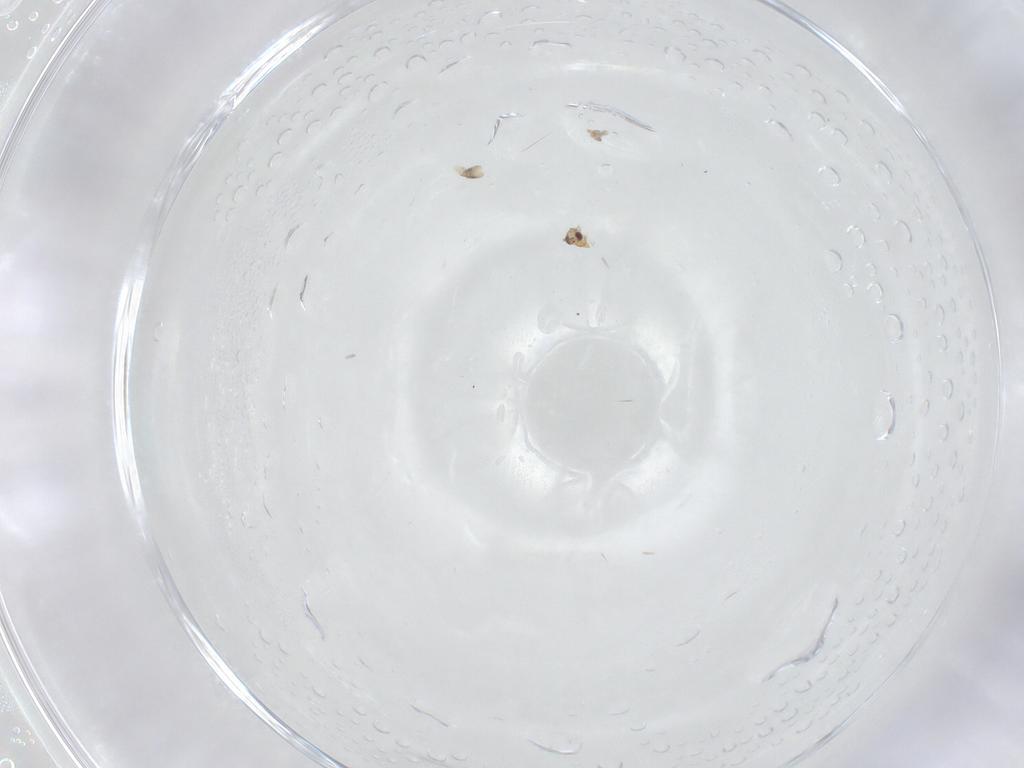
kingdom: Animalia
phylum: Arthropoda
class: Insecta
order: Hymenoptera
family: Mymaridae
